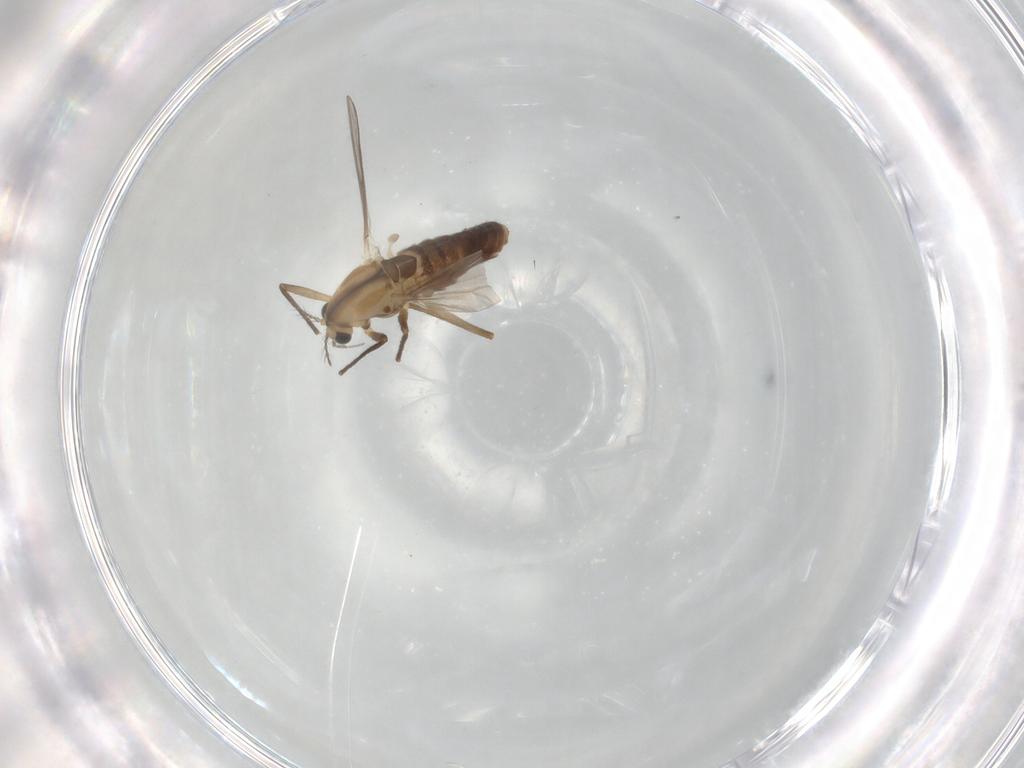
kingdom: Animalia
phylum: Arthropoda
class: Insecta
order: Diptera
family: Chironomidae
